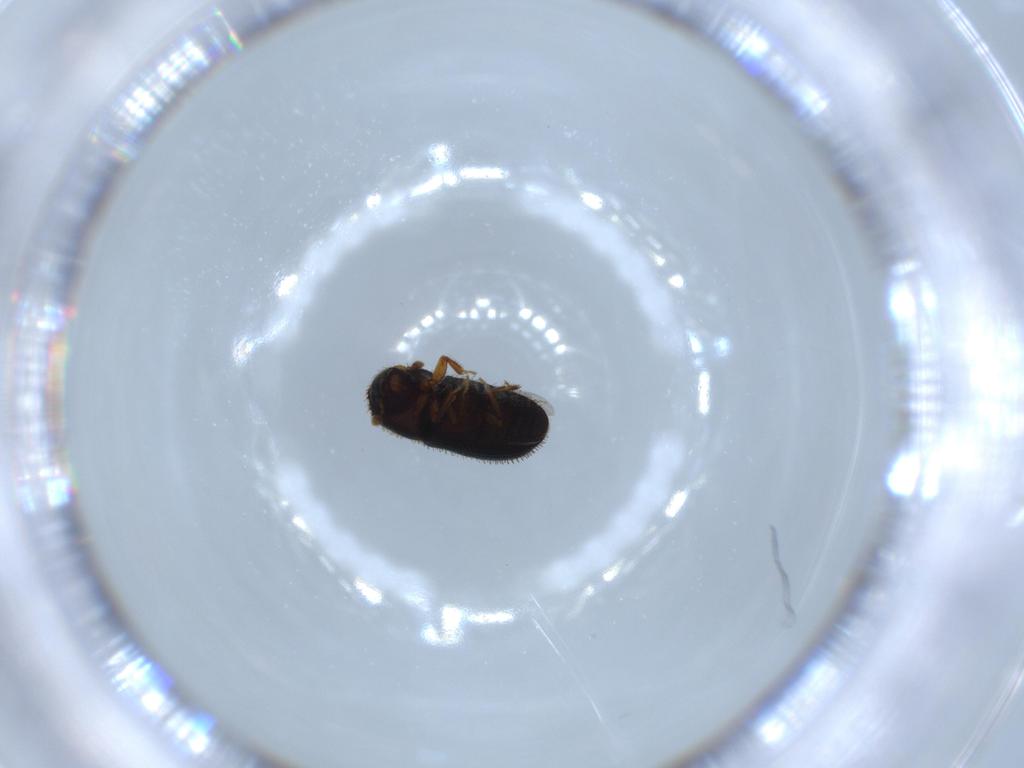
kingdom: Animalia
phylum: Arthropoda
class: Insecta
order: Coleoptera
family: Curculionidae
